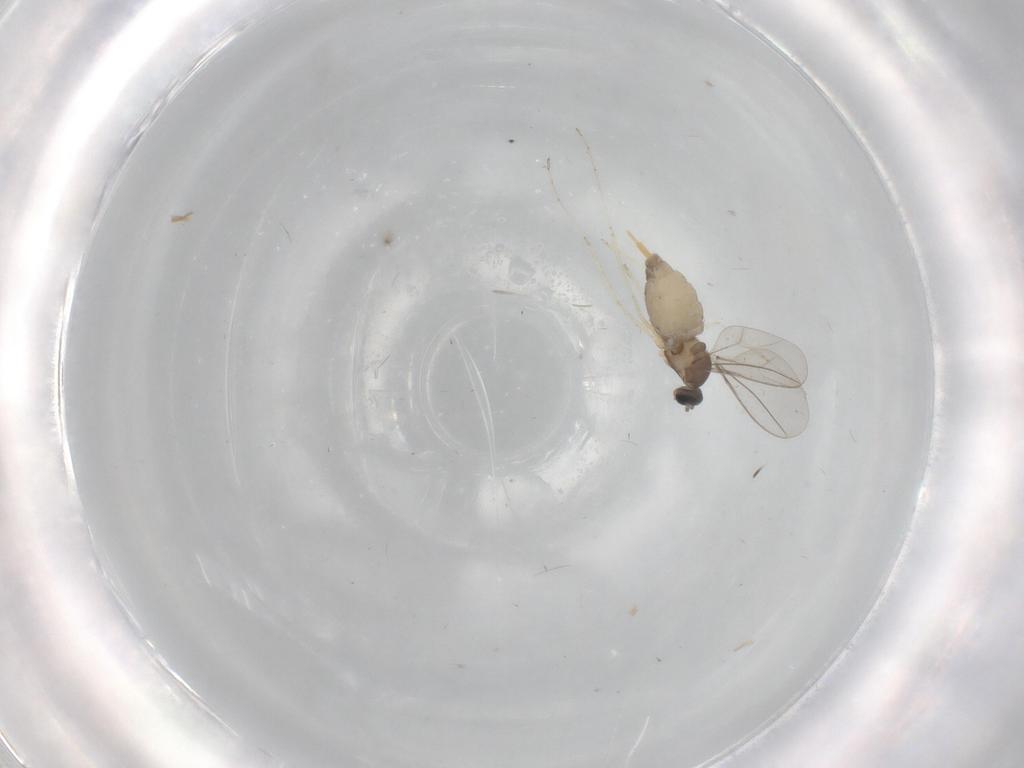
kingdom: Animalia
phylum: Arthropoda
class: Insecta
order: Diptera
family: Cecidomyiidae
